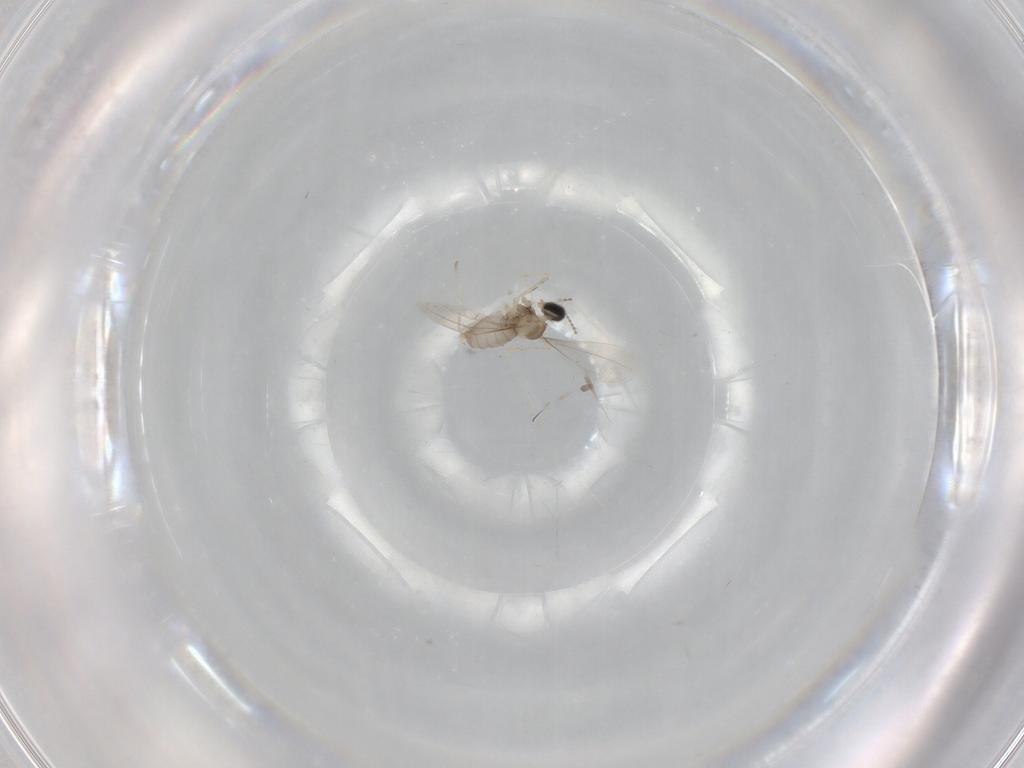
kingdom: Animalia
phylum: Arthropoda
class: Insecta
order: Diptera
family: Cecidomyiidae
